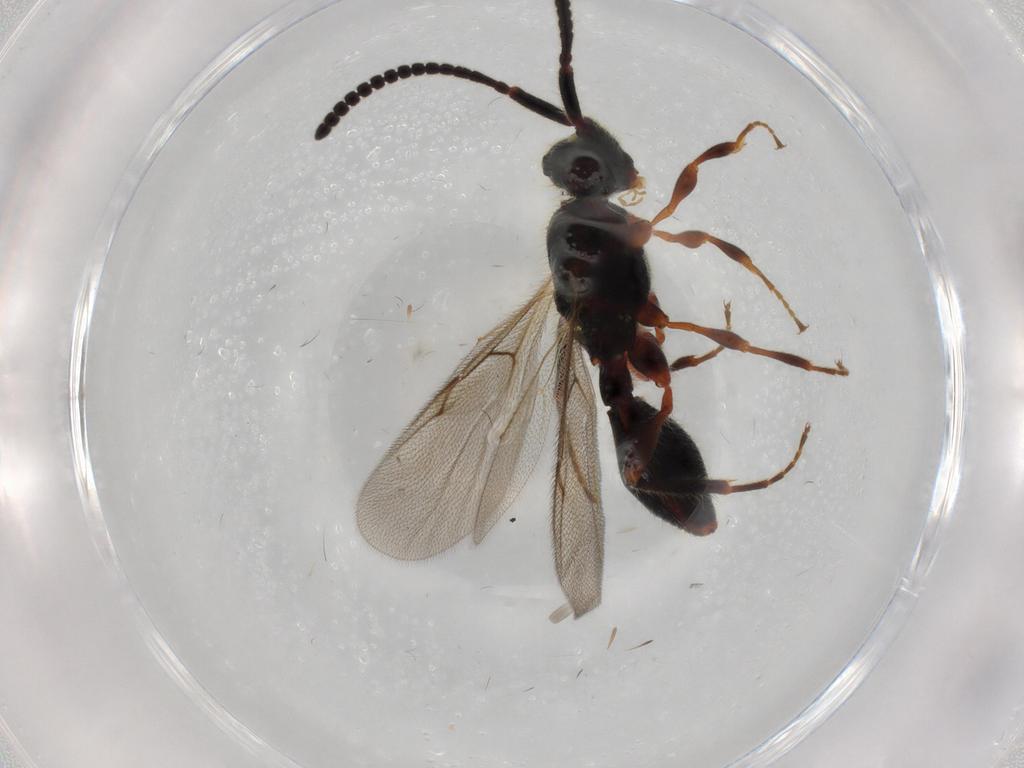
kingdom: Animalia
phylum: Arthropoda
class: Insecta
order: Hymenoptera
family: Diapriidae
